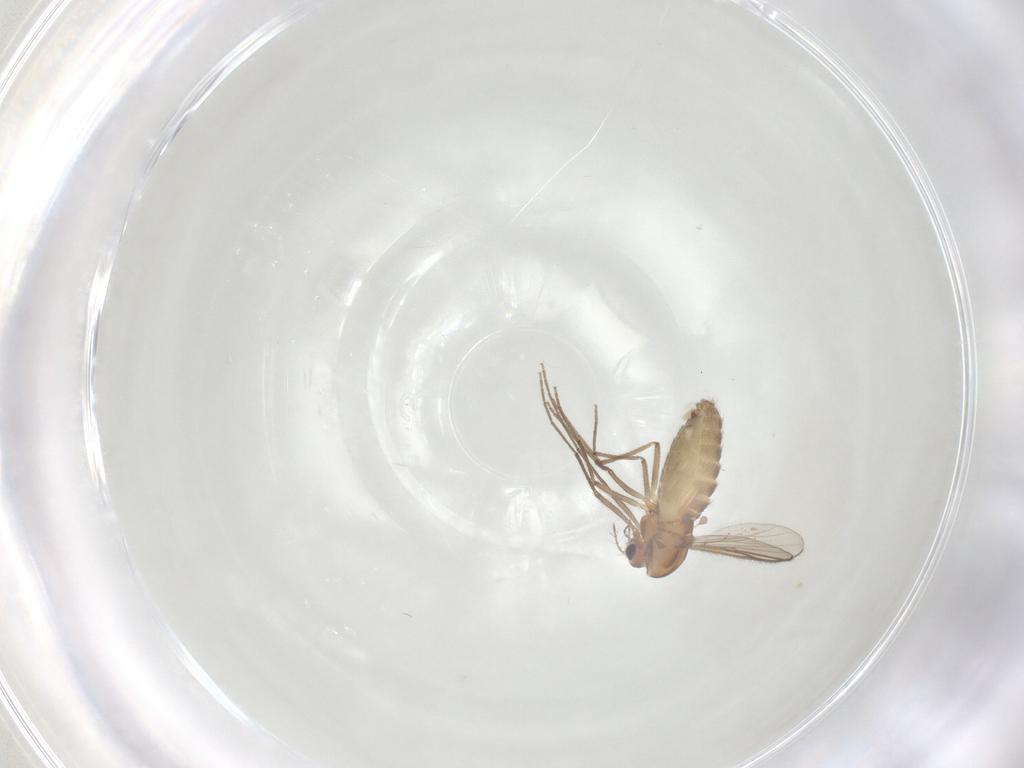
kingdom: Animalia
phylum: Arthropoda
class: Insecta
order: Diptera
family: Chironomidae
